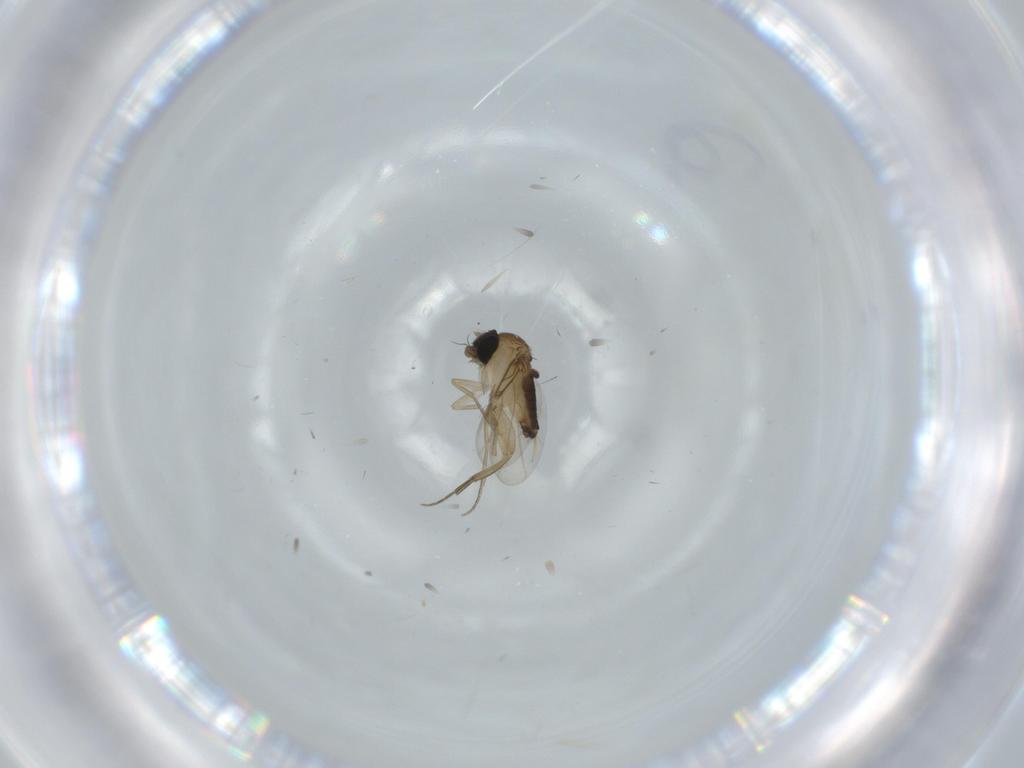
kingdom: Animalia
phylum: Arthropoda
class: Insecta
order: Diptera
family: Phoridae
